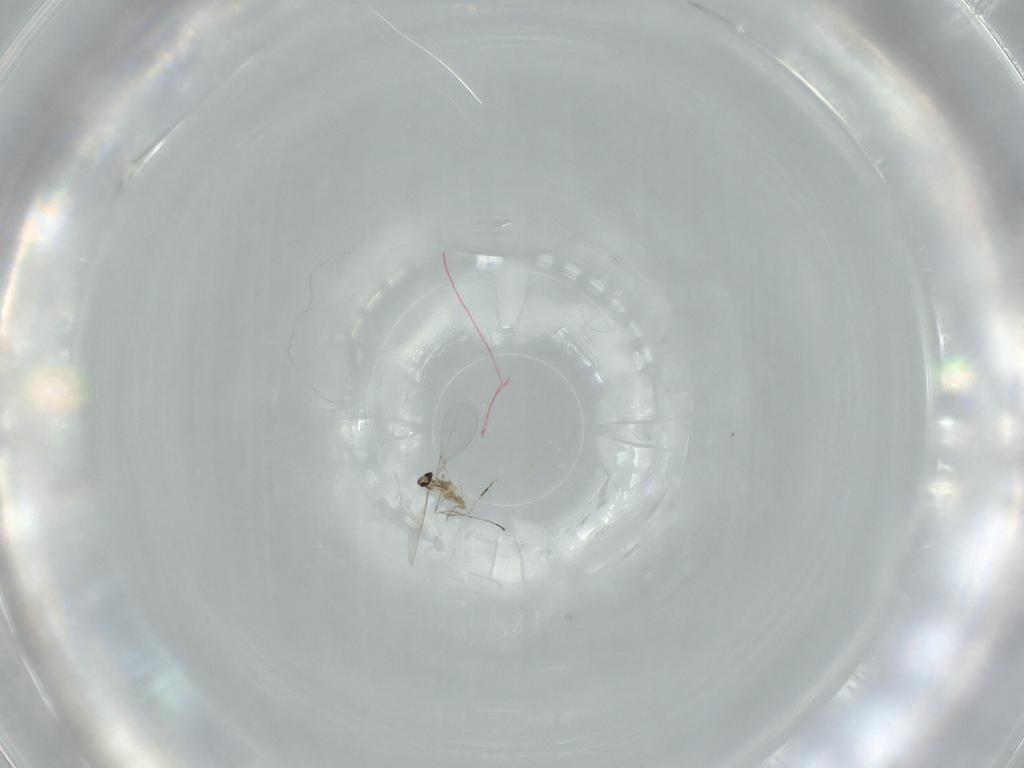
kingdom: Animalia
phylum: Arthropoda
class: Insecta
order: Diptera
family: Cecidomyiidae
